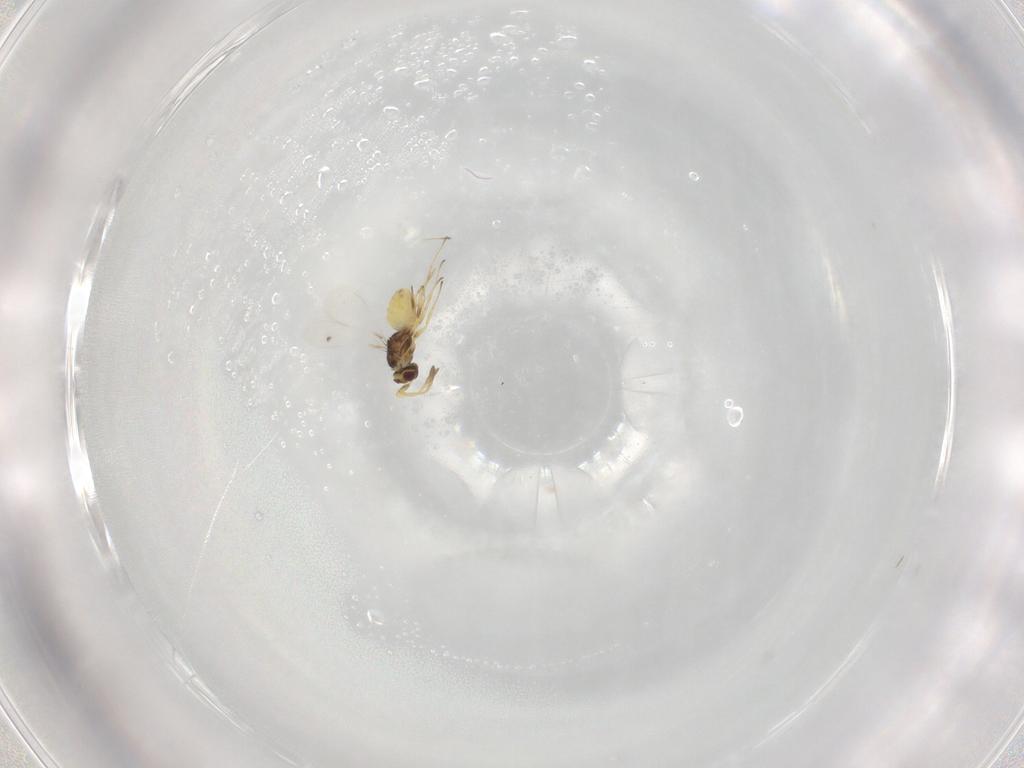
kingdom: Animalia
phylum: Arthropoda
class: Insecta
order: Hymenoptera
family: Mymaridae
